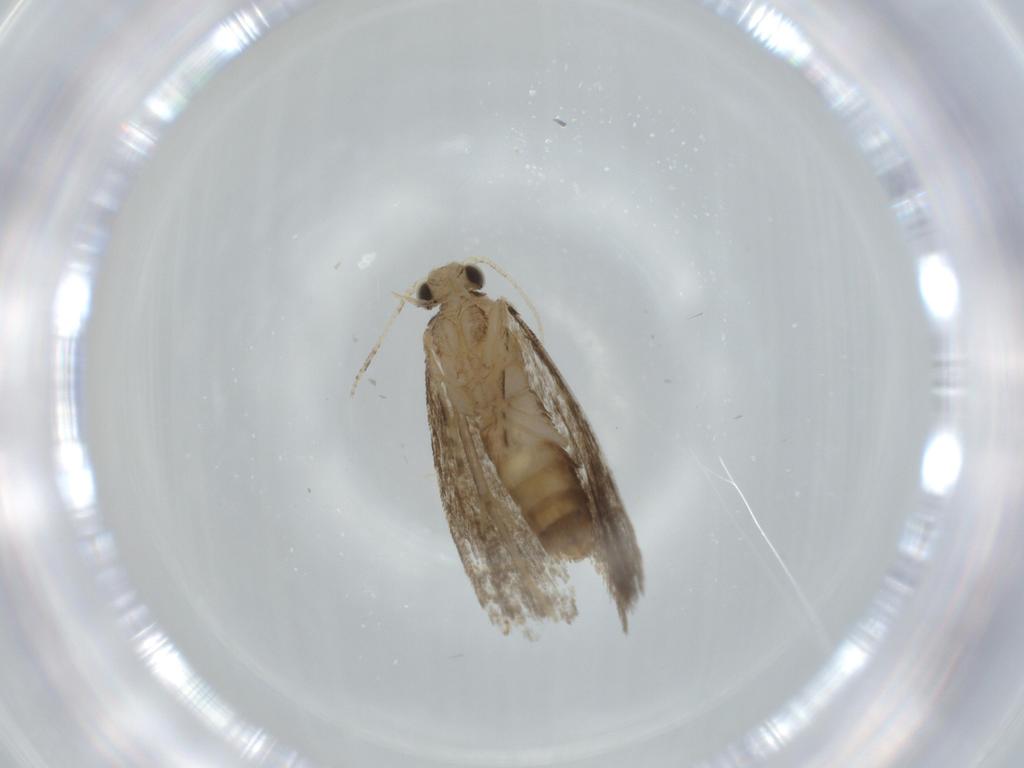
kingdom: Animalia
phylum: Arthropoda
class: Insecta
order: Lepidoptera
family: Tineidae
